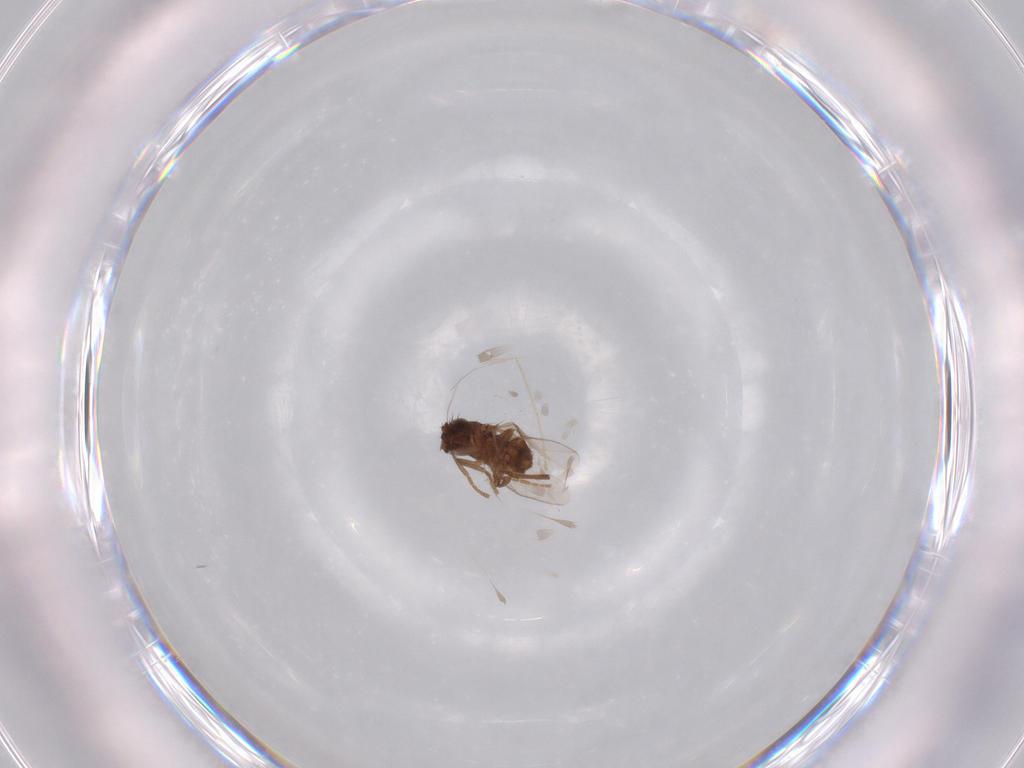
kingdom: Animalia
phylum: Arthropoda
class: Insecta
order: Diptera
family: Sphaeroceridae
